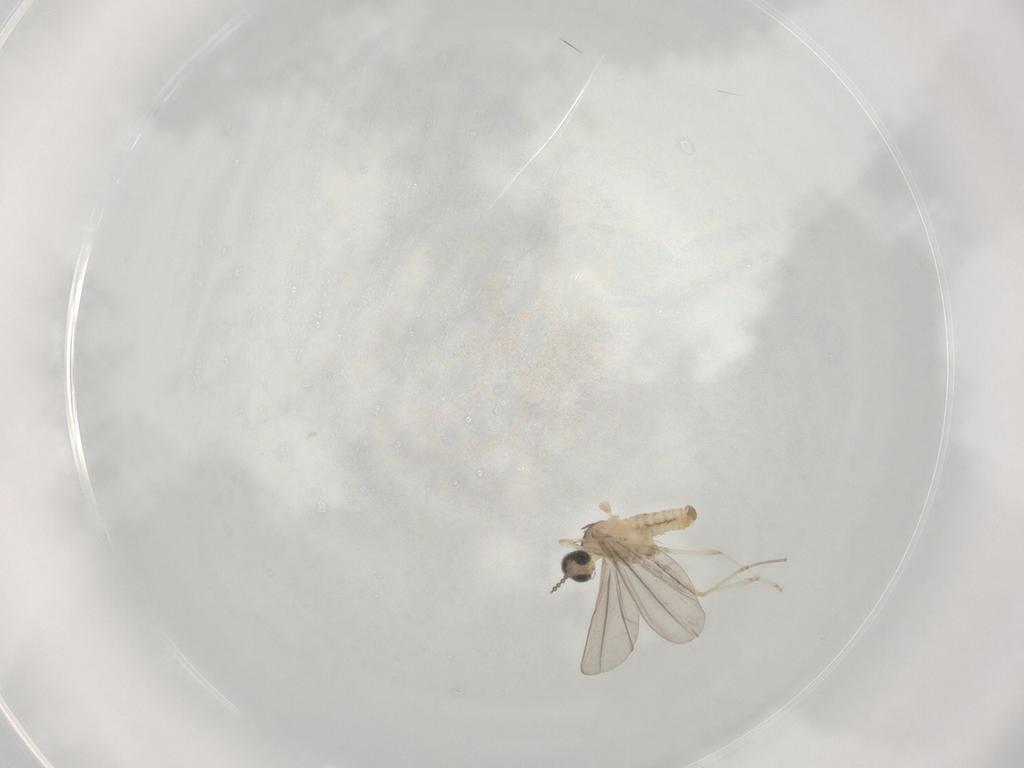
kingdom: Animalia
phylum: Arthropoda
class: Insecta
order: Diptera
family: Cecidomyiidae
